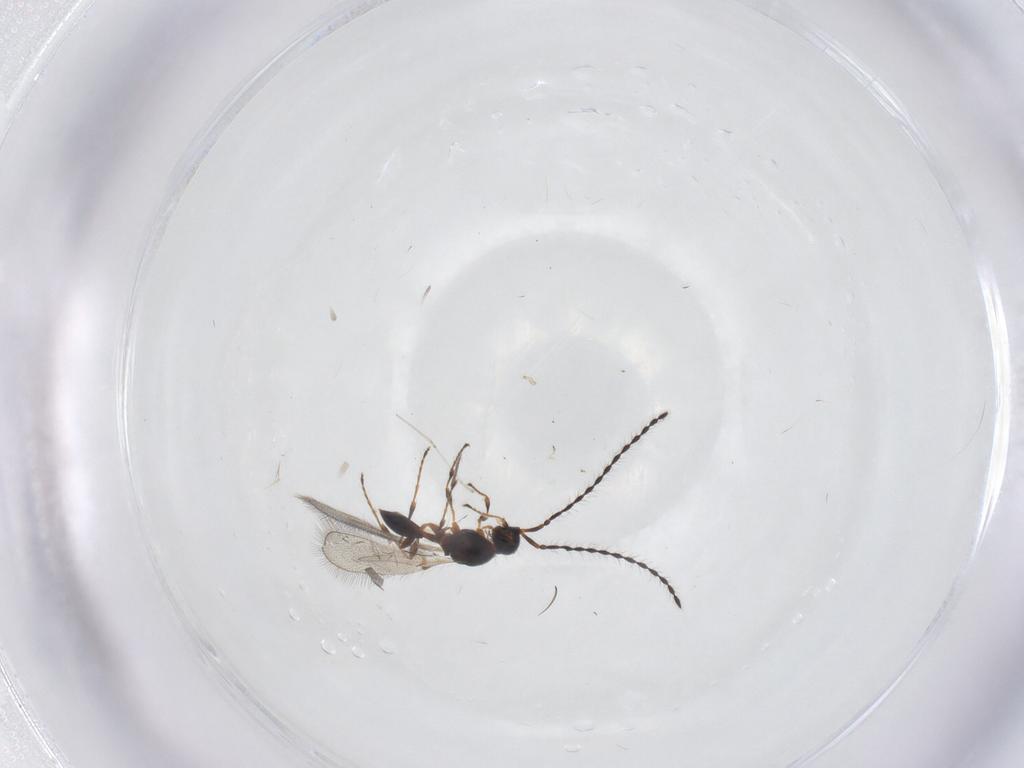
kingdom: Animalia
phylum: Arthropoda
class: Insecta
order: Hymenoptera
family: Diapriidae
